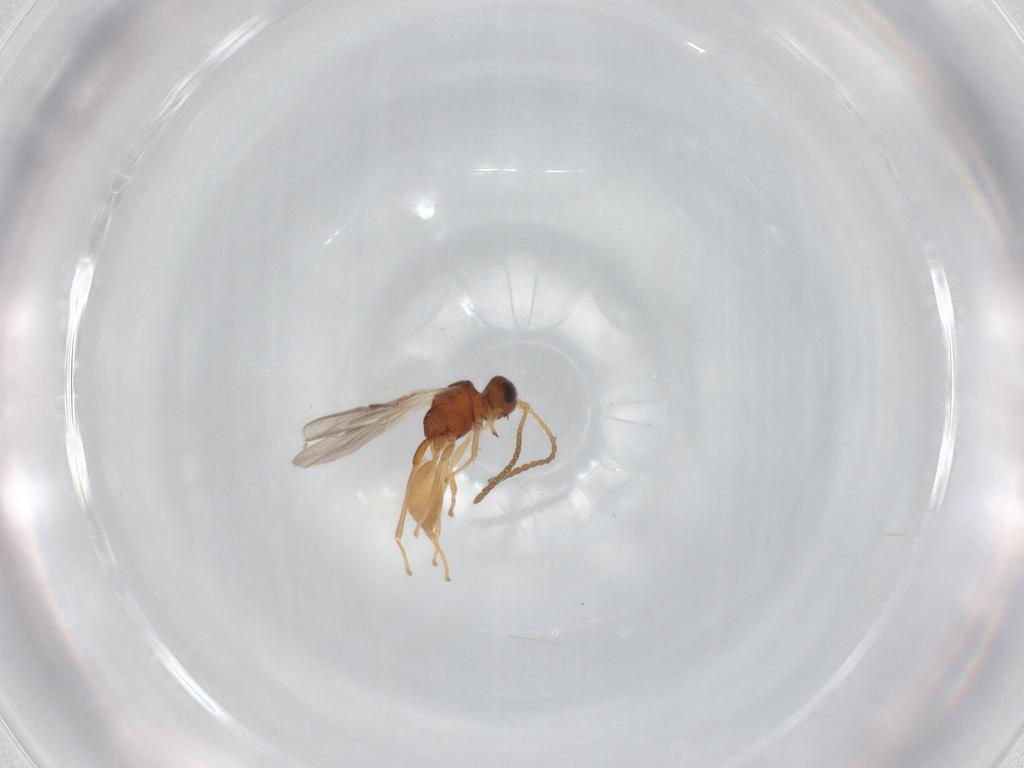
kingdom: Animalia
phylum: Arthropoda
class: Insecta
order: Hymenoptera
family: Braconidae
